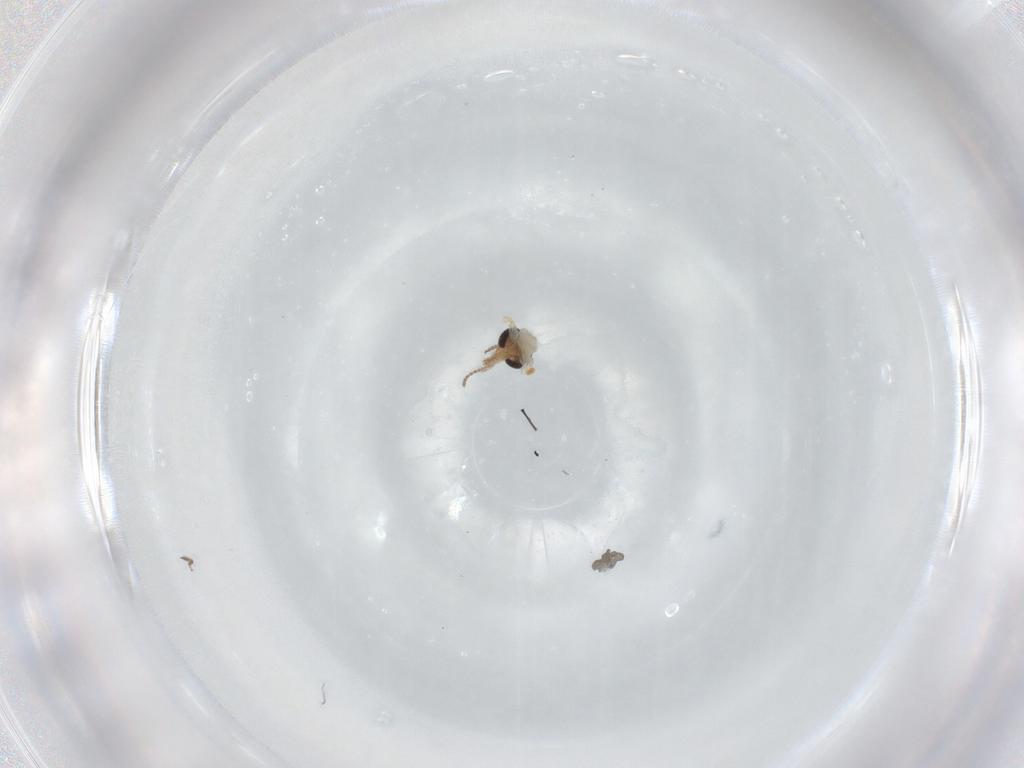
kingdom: Animalia
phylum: Arthropoda
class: Insecta
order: Diptera
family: Ceratopogonidae
